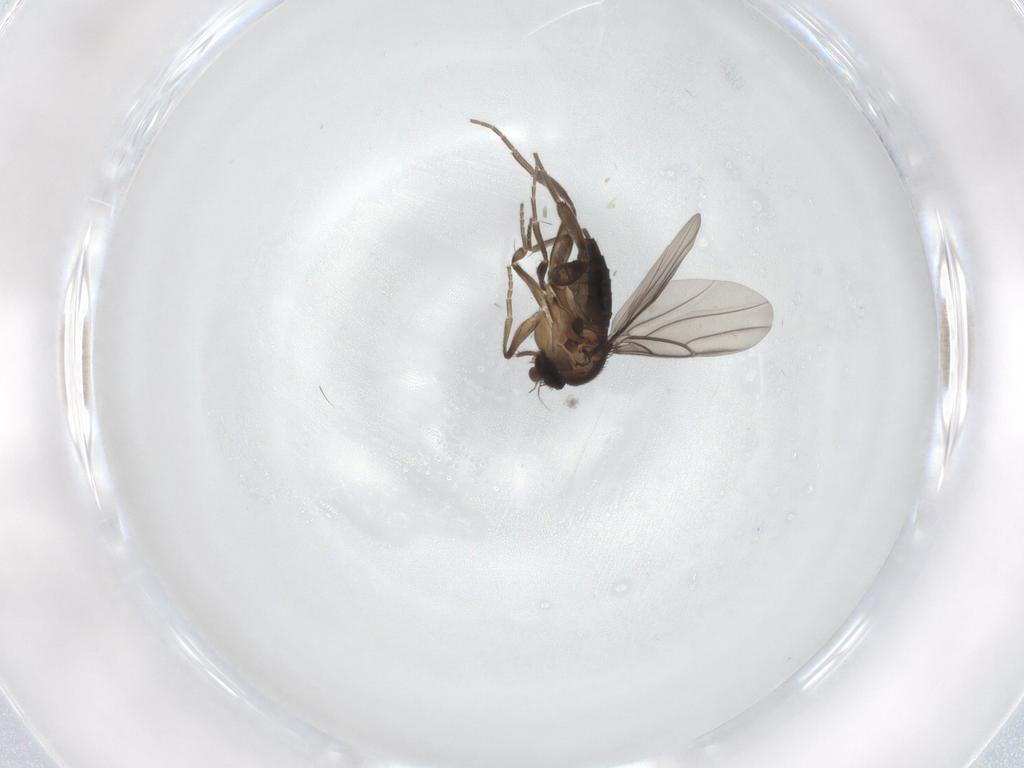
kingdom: Animalia
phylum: Arthropoda
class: Insecta
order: Diptera
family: Phoridae
